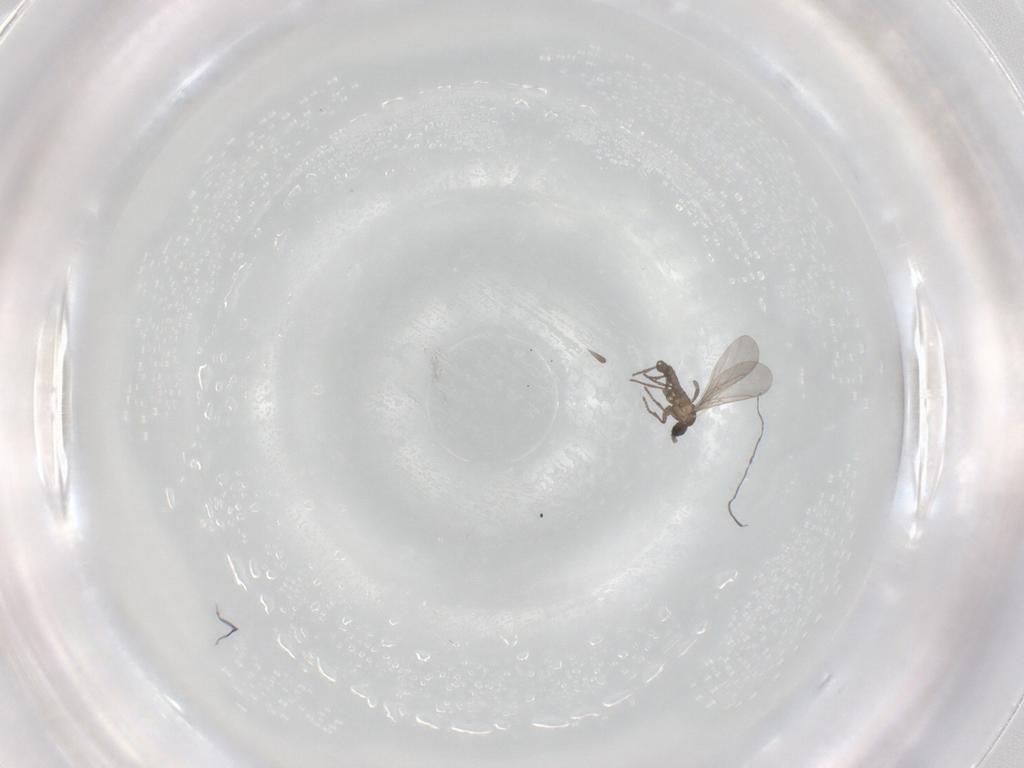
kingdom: Animalia
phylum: Arthropoda
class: Insecta
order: Diptera
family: Sciaridae
